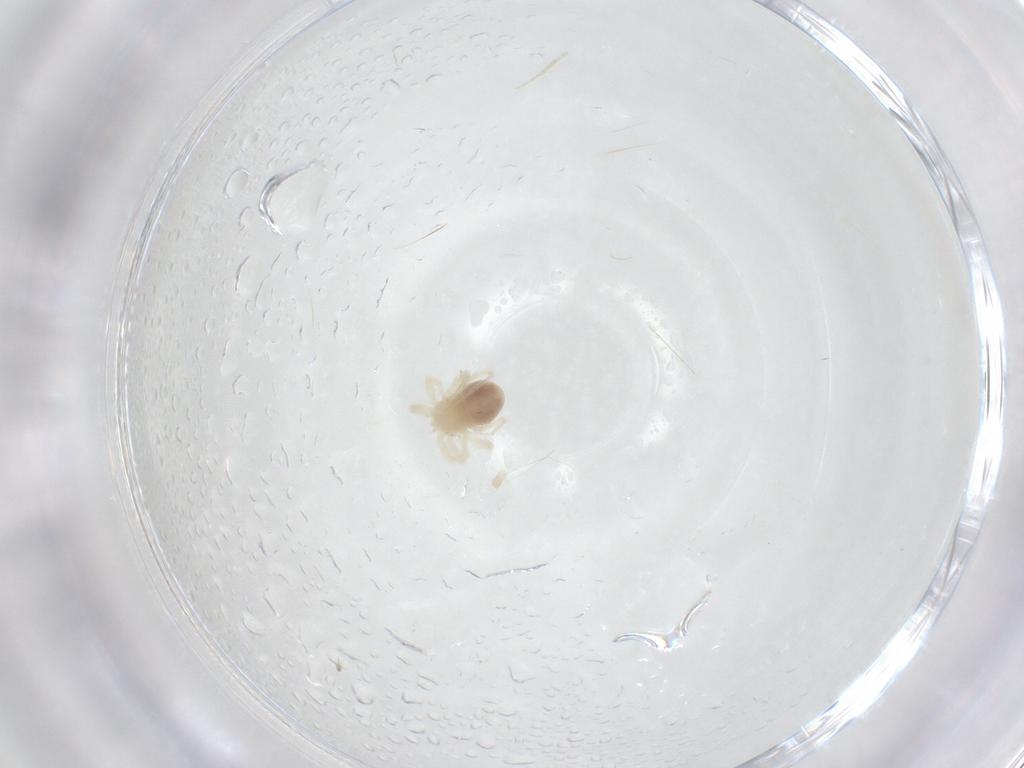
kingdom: Animalia
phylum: Arthropoda
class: Arachnida
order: Trombidiformes
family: Anystidae
